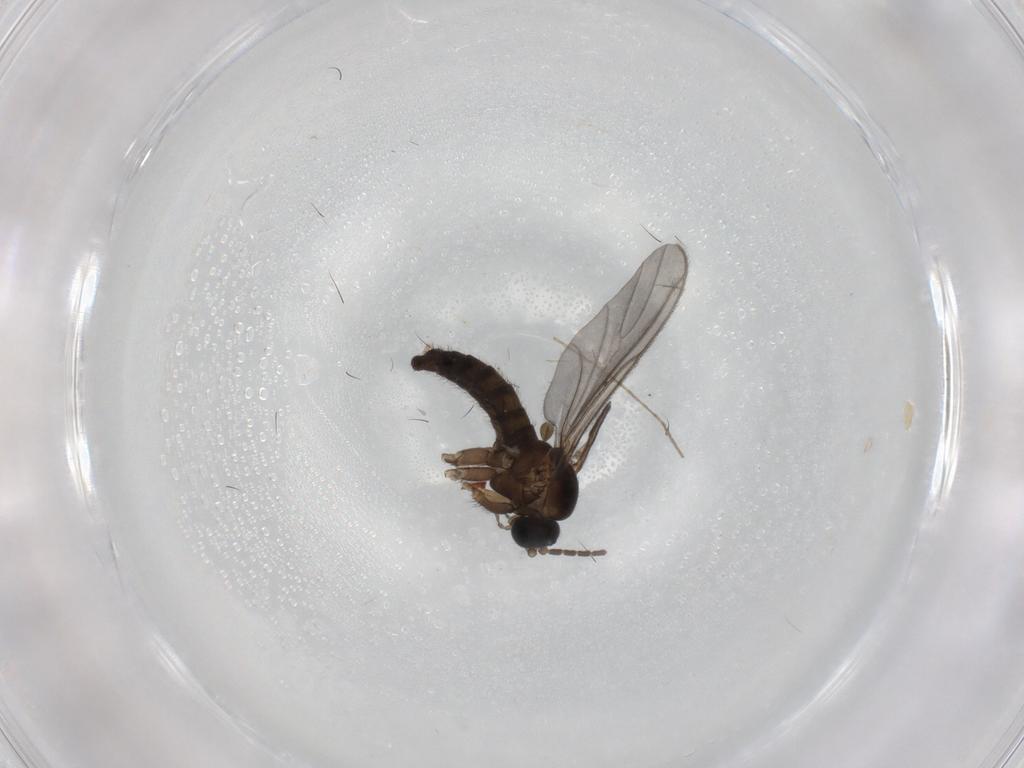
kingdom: Animalia
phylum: Arthropoda
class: Insecta
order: Diptera
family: Sciaridae
